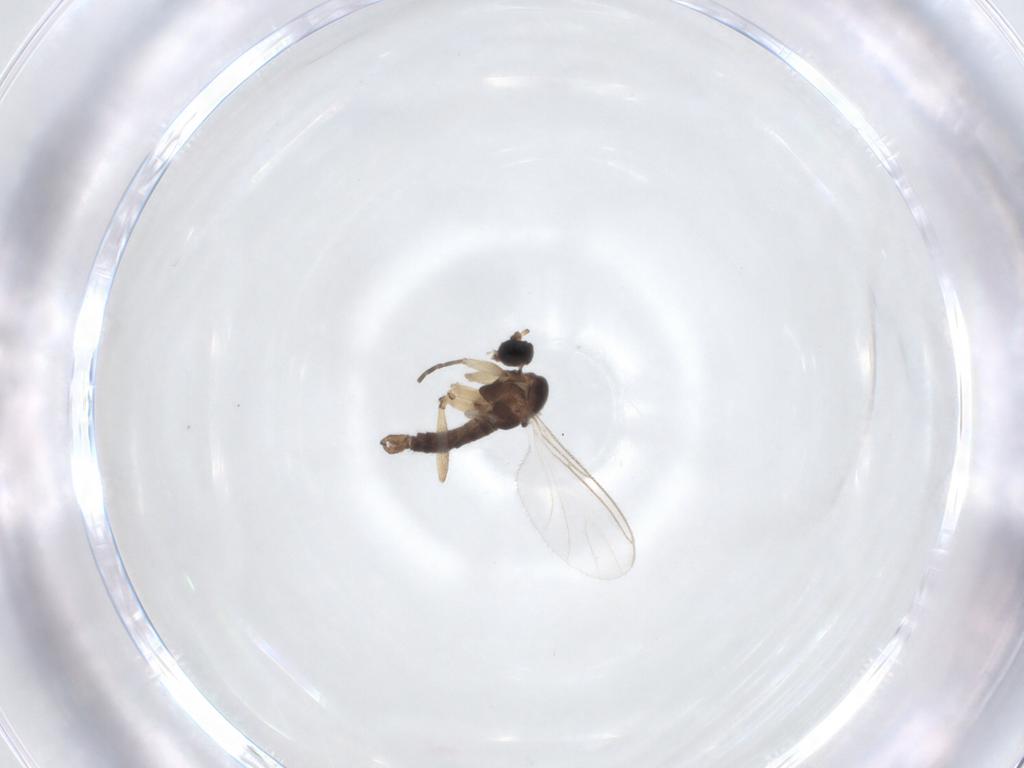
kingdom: Animalia
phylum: Arthropoda
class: Insecta
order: Diptera
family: Sciaridae
